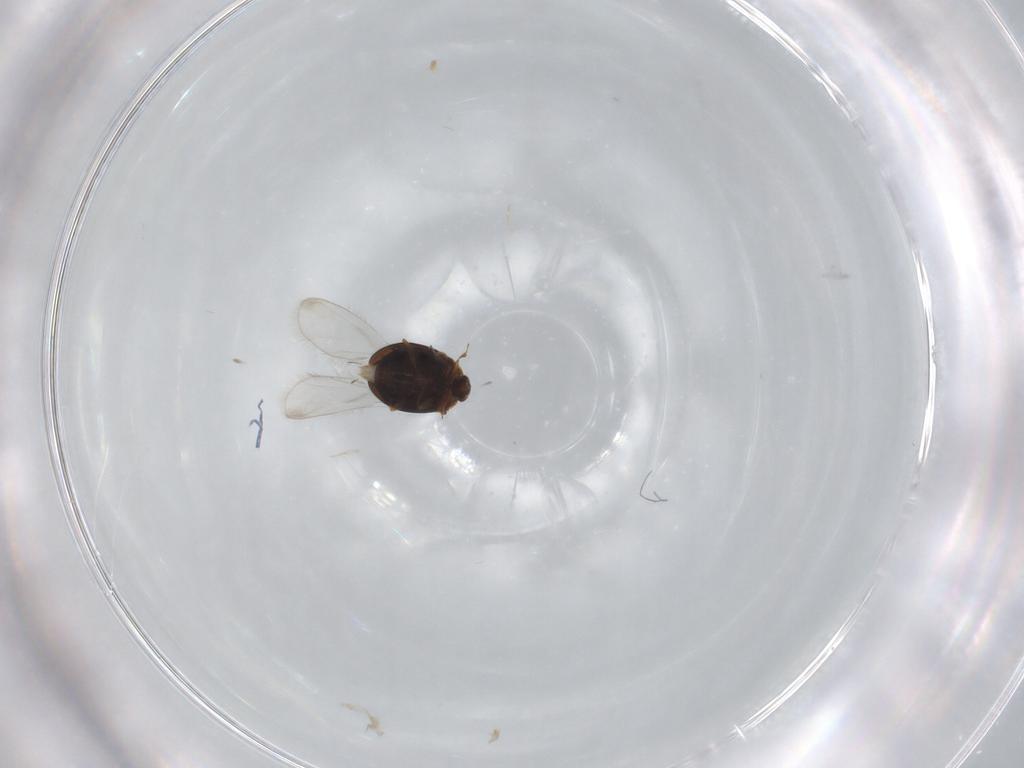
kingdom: Animalia
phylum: Arthropoda
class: Insecta
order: Coleoptera
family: Corylophidae
